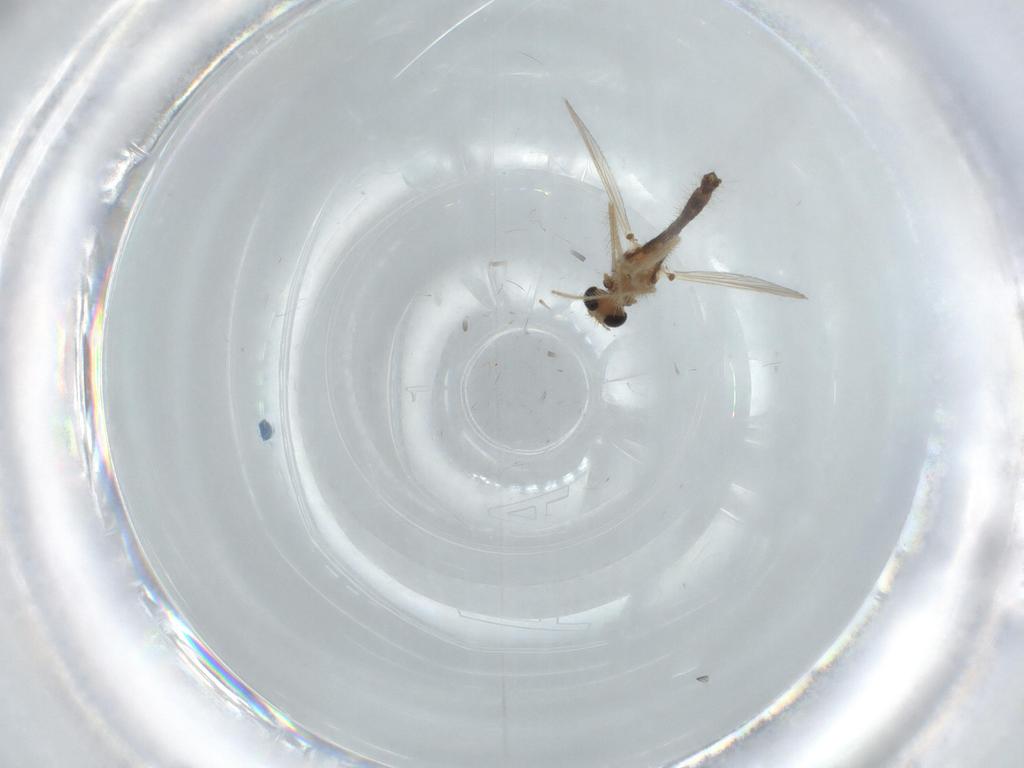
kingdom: Animalia
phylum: Arthropoda
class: Insecta
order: Diptera
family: Chironomidae
